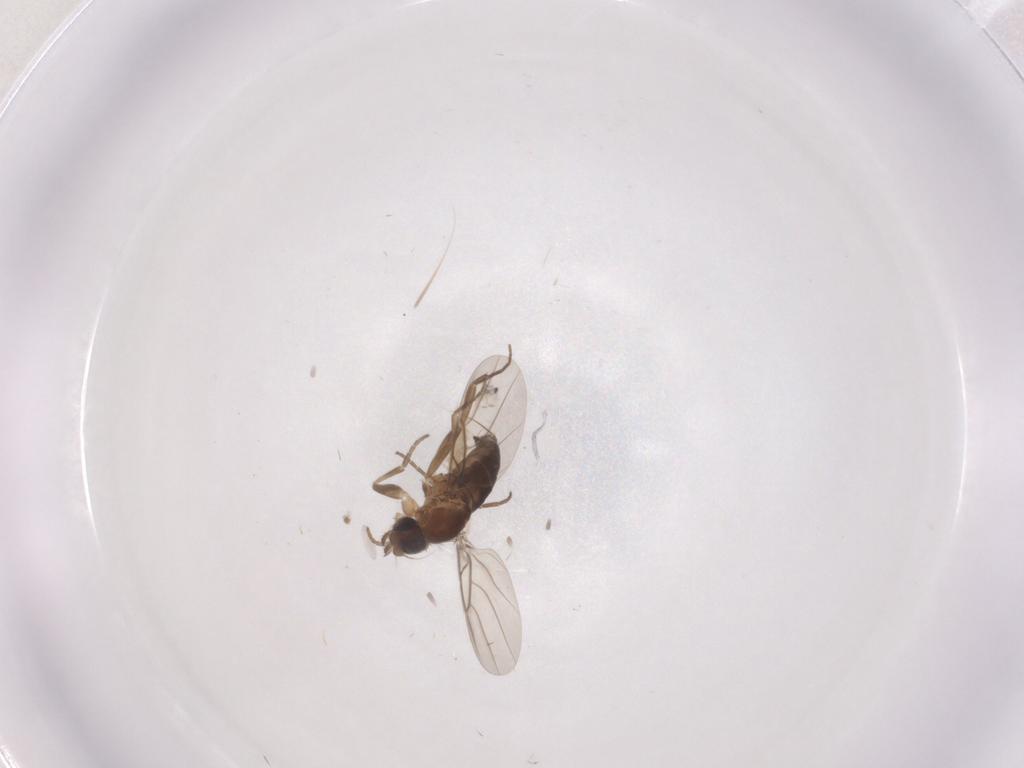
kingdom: Animalia
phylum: Arthropoda
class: Insecta
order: Diptera
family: Phoridae
